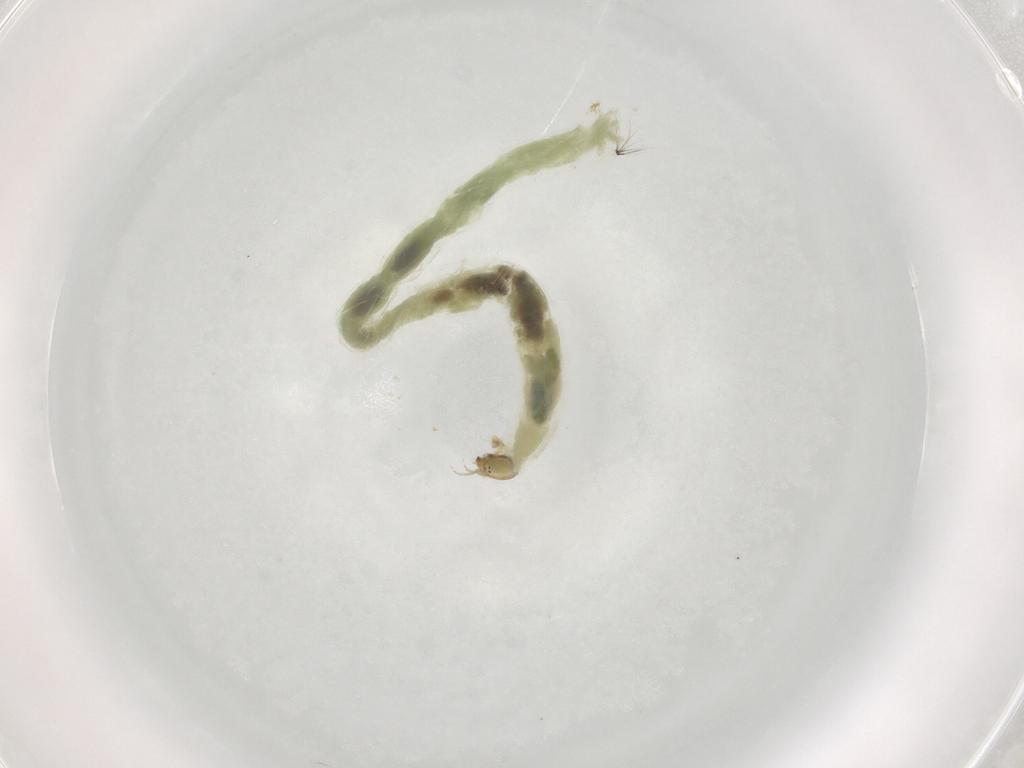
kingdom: Animalia
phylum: Arthropoda
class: Insecta
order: Diptera
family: Chironomidae
